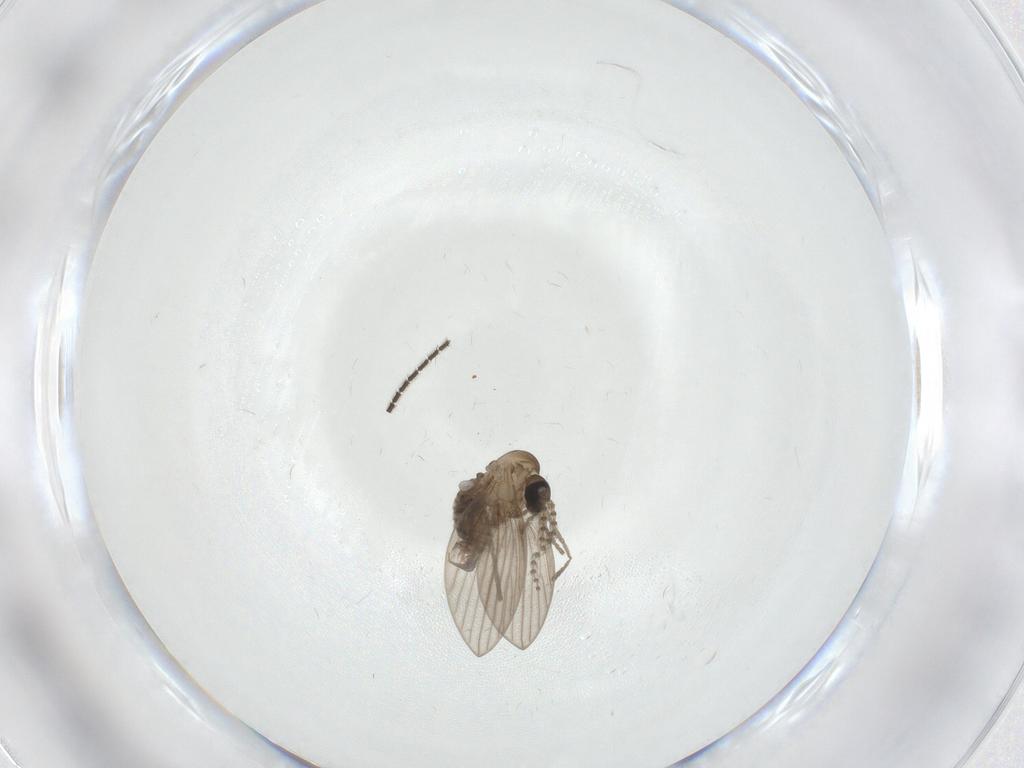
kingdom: Animalia
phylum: Arthropoda
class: Insecta
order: Diptera
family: Psychodidae
